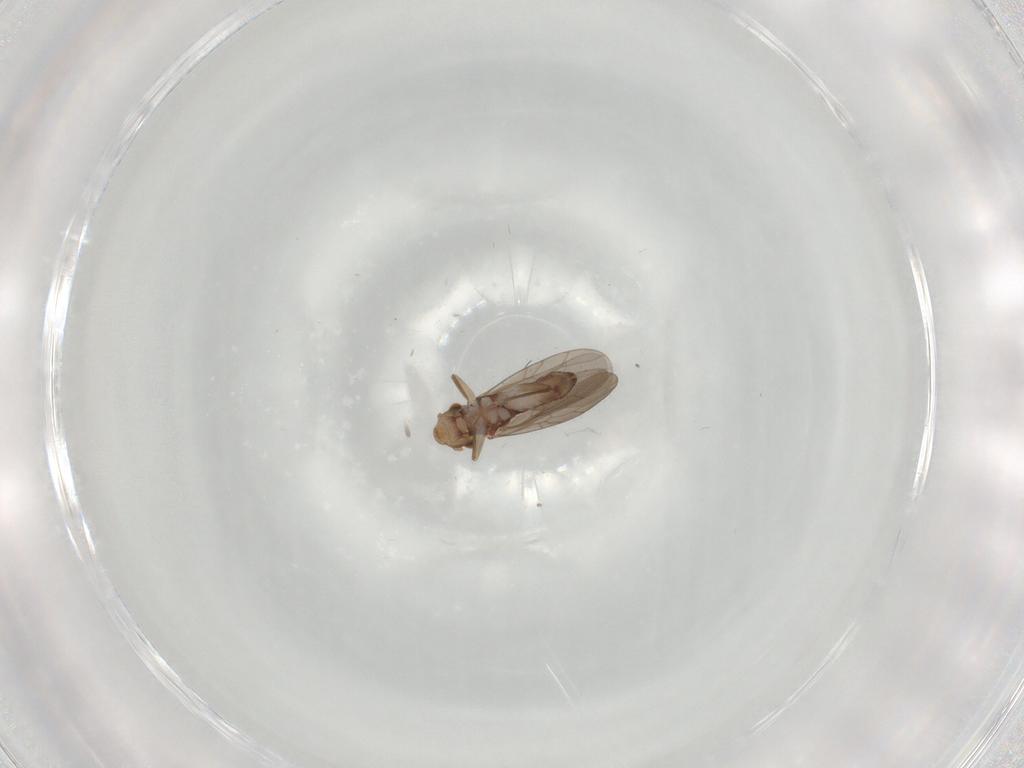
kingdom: Animalia
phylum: Arthropoda
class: Insecta
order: Psocodea
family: Lepidopsocidae
